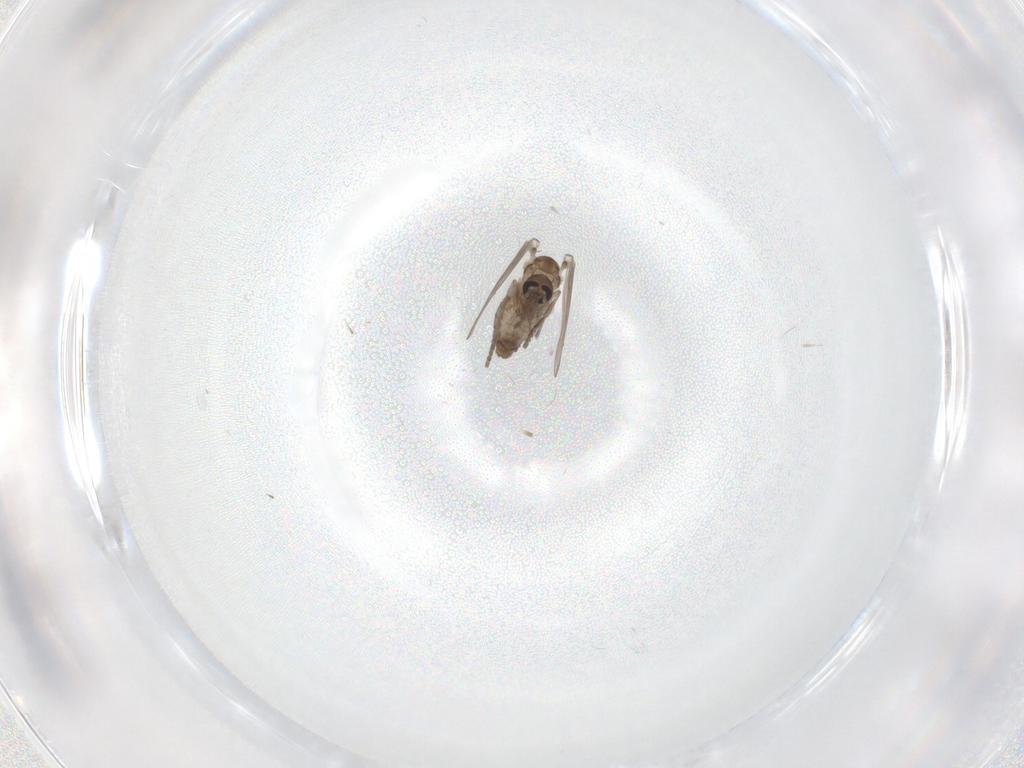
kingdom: Animalia
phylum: Arthropoda
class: Insecta
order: Diptera
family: Psychodidae
